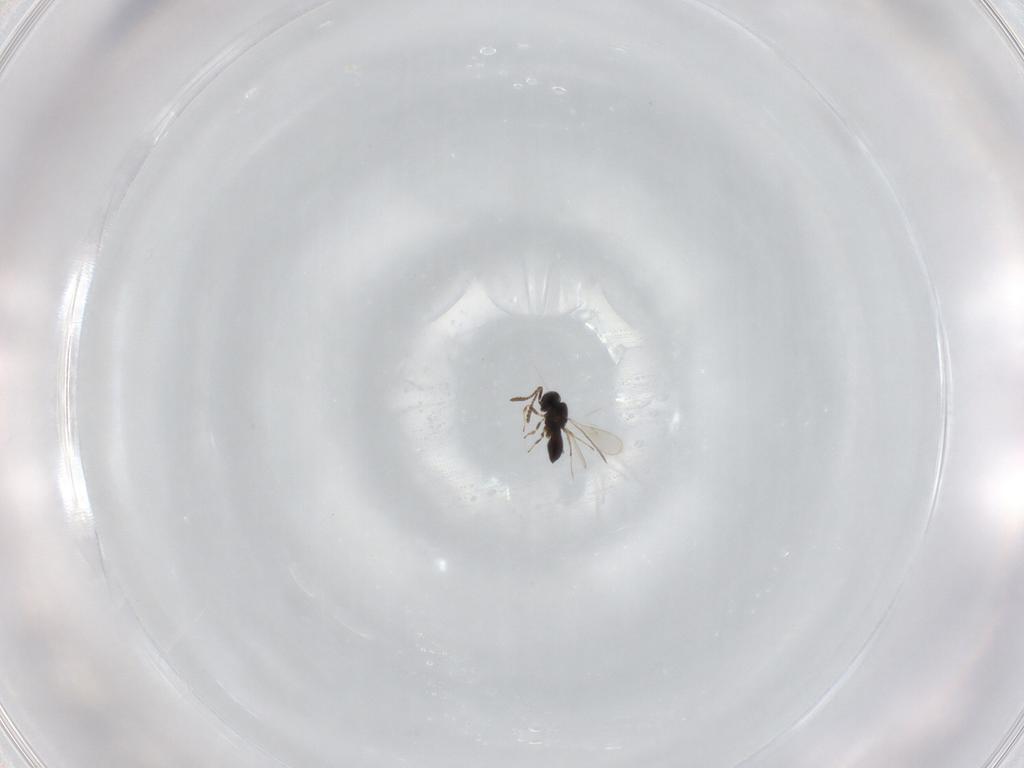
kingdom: Animalia
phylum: Arthropoda
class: Insecta
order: Hymenoptera
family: Scelionidae
